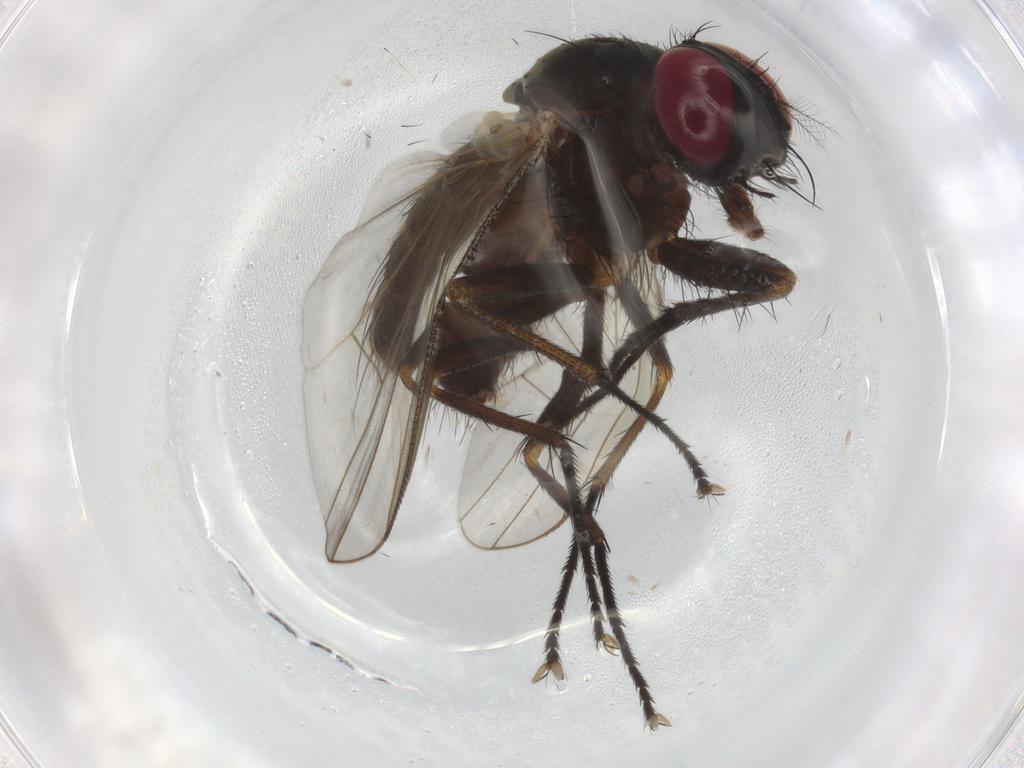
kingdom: Animalia
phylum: Arthropoda
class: Insecta
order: Diptera
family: Muscidae
